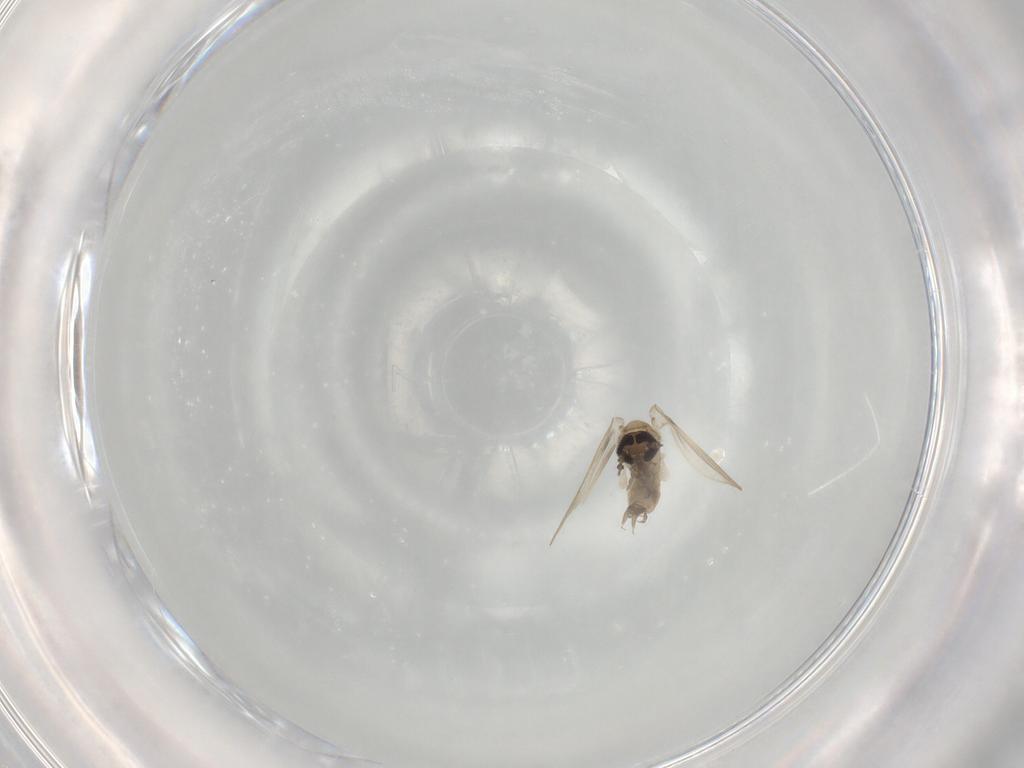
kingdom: Animalia
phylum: Arthropoda
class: Insecta
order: Diptera
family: Psychodidae
